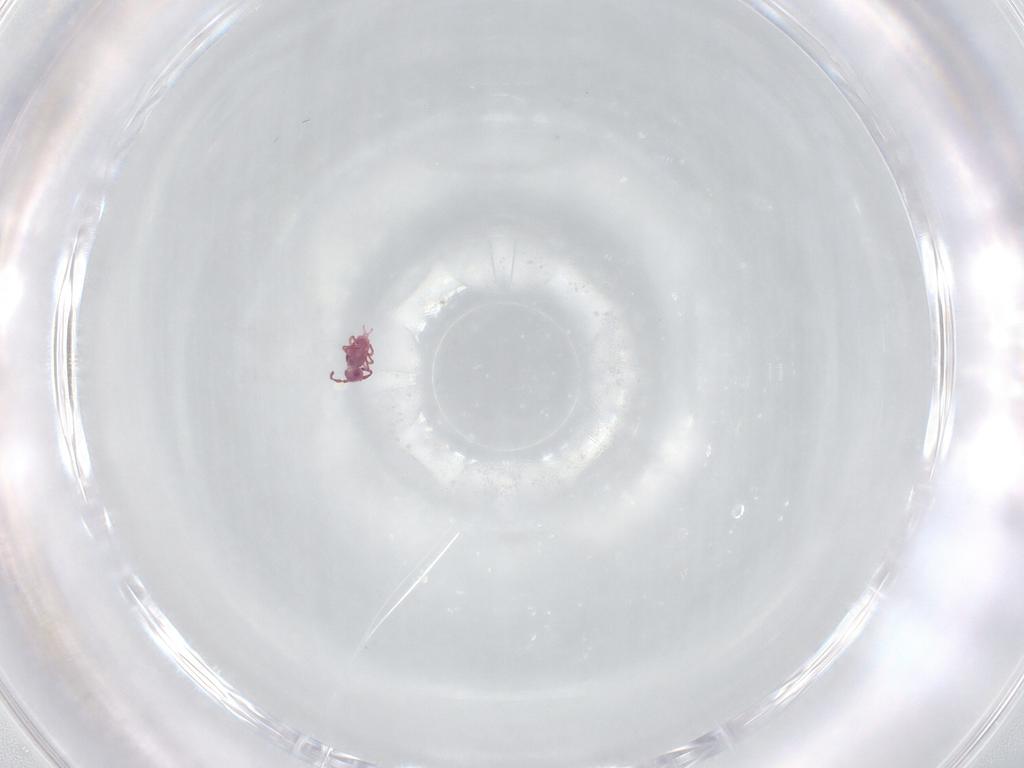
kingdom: Animalia
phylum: Arthropoda
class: Collembola
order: Symphypleona
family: Sminthurididae
